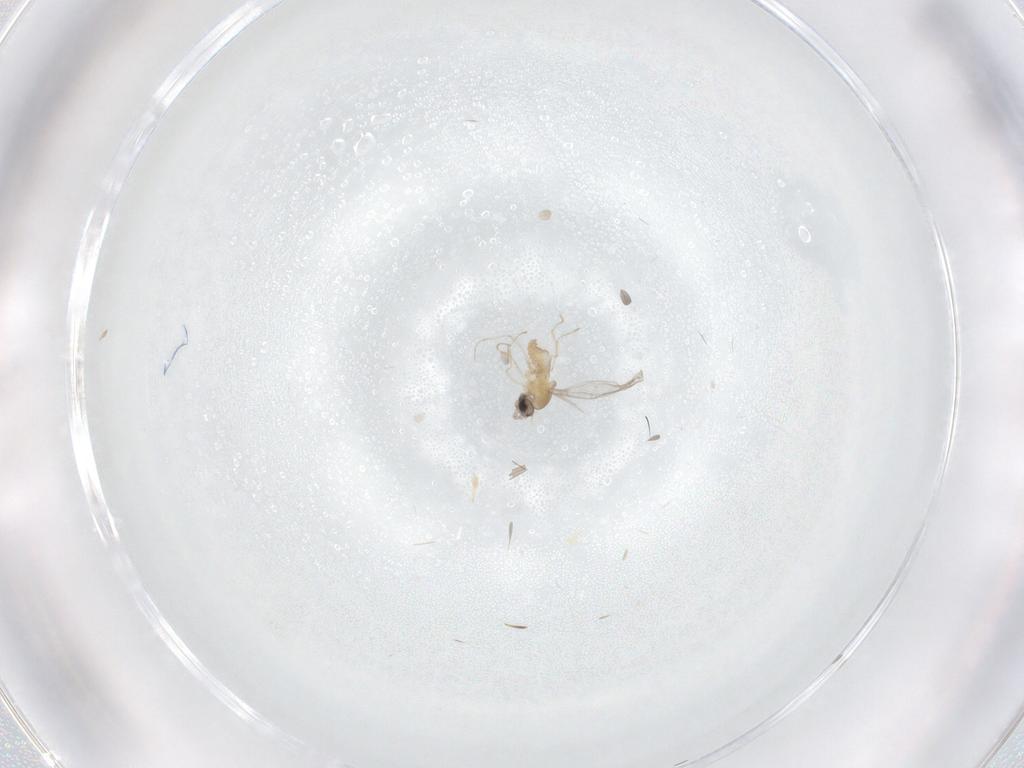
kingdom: Animalia
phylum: Arthropoda
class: Insecta
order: Diptera
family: Cecidomyiidae
